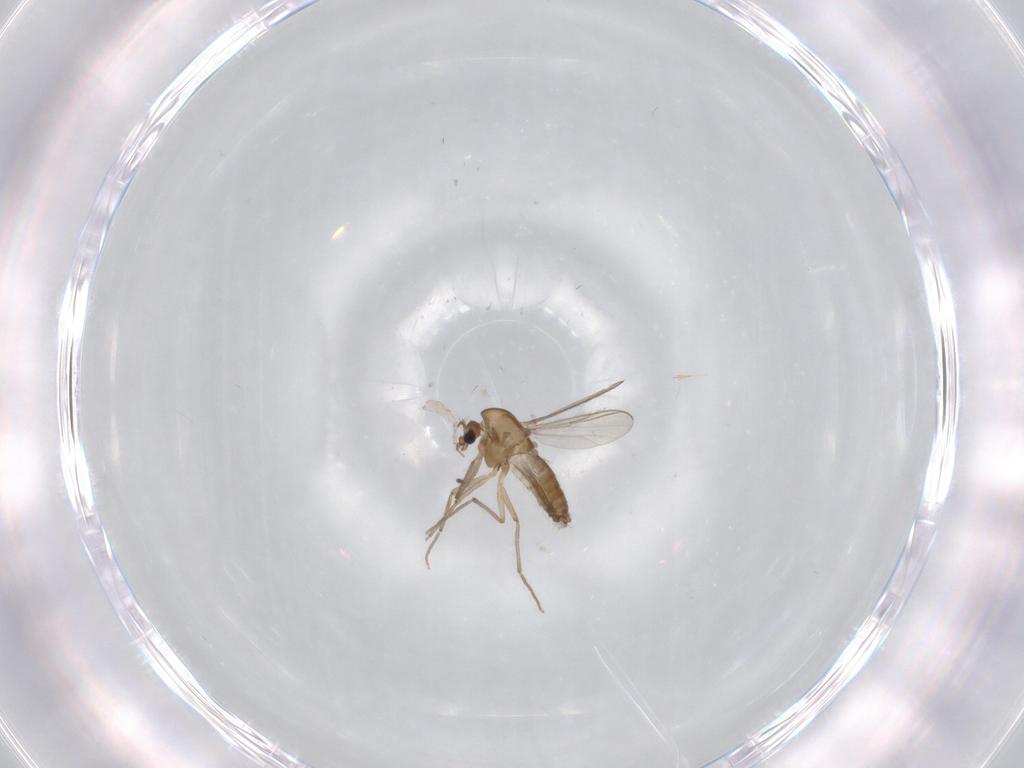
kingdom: Animalia
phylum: Arthropoda
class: Insecta
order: Diptera
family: Chironomidae
